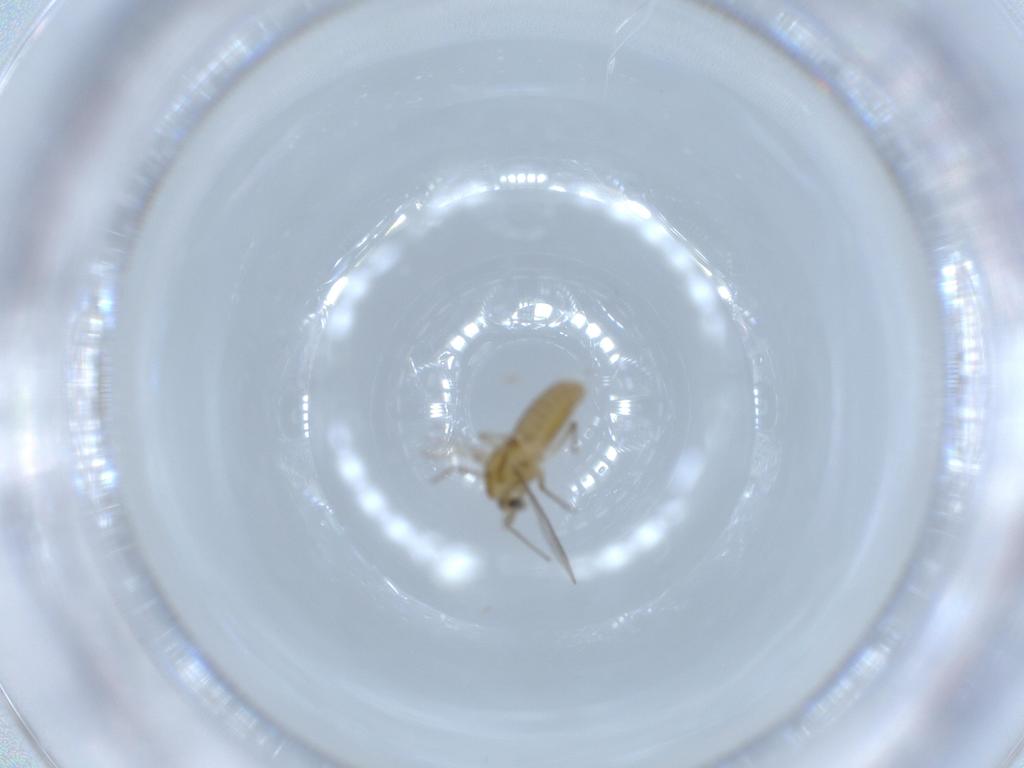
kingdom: Animalia
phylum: Arthropoda
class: Insecta
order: Diptera
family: Chironomidae
